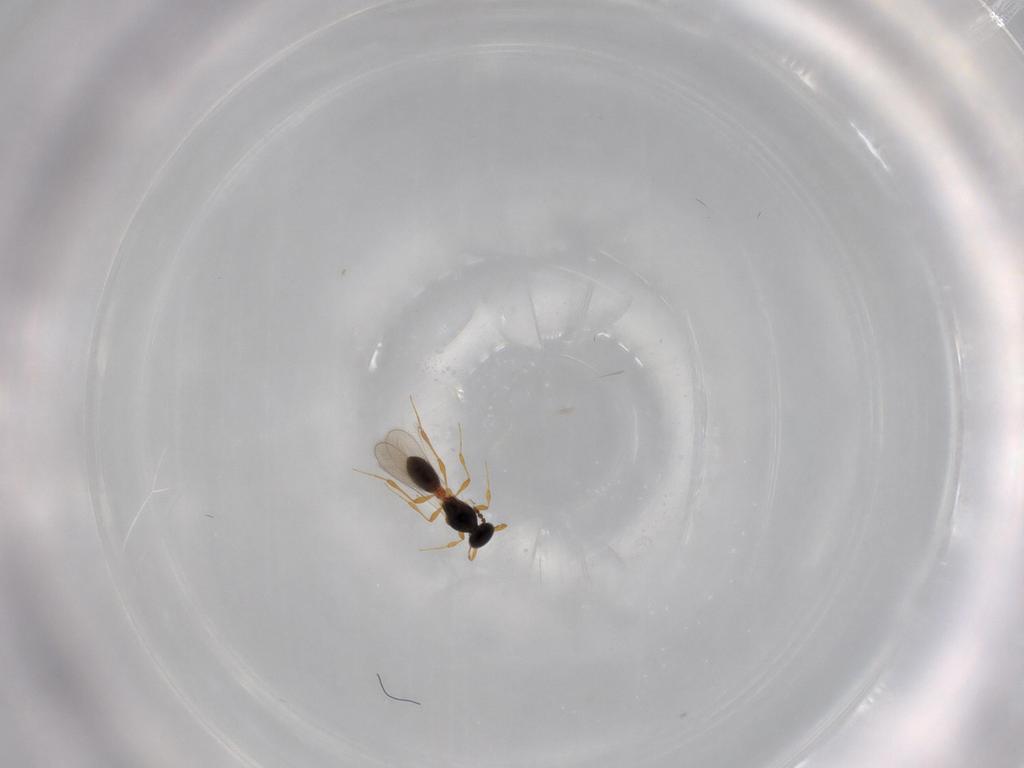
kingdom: Animalia
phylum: Arthropoda
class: Insecta
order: Hymenoptera
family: Platygastridae
